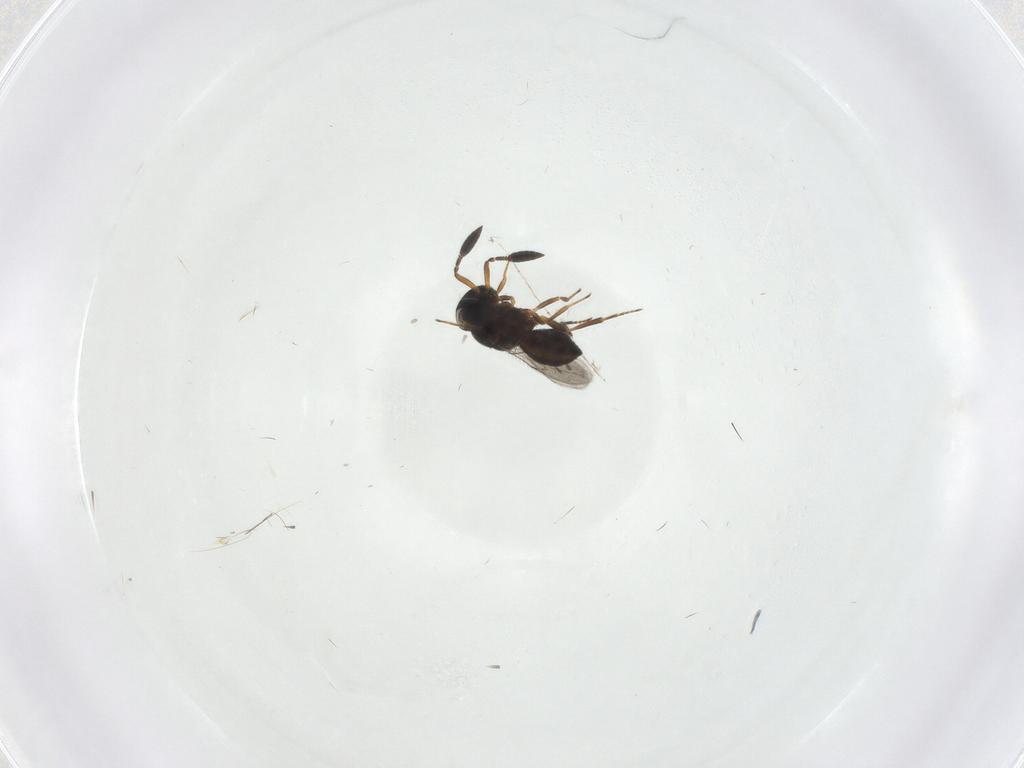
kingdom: Animalia
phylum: Arthropoda
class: Insecta
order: Hymenoptera
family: Scelionidae
